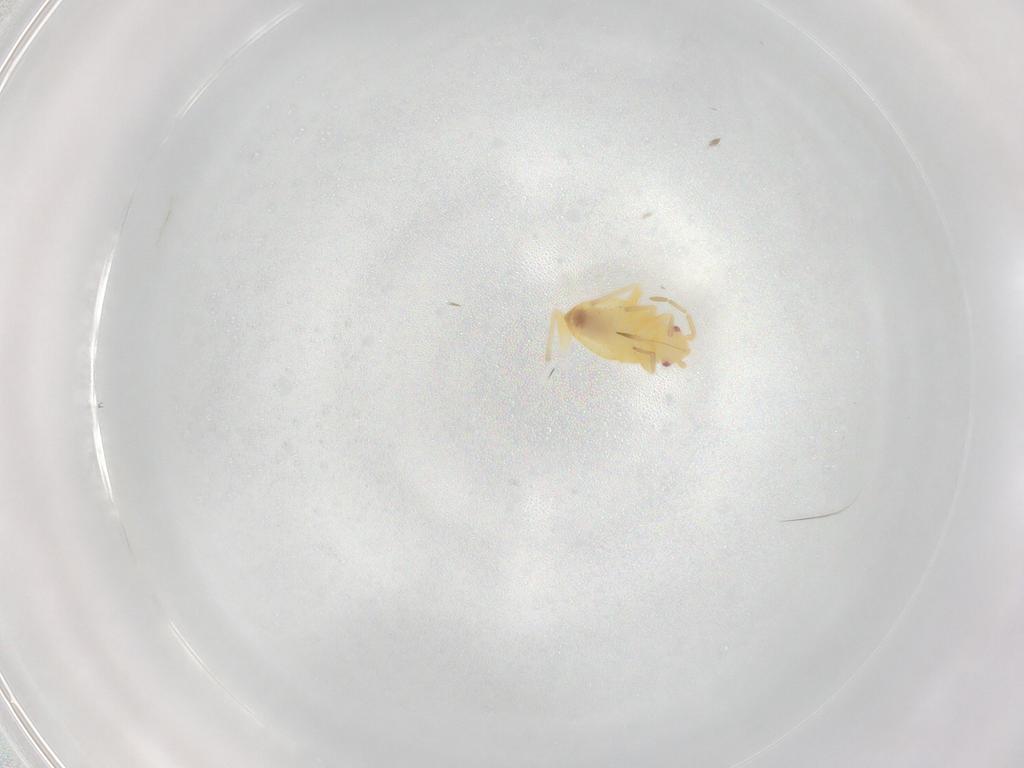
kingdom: Animalia
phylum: Arthropoda
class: Insecta
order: Hemiptera
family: Miridae
